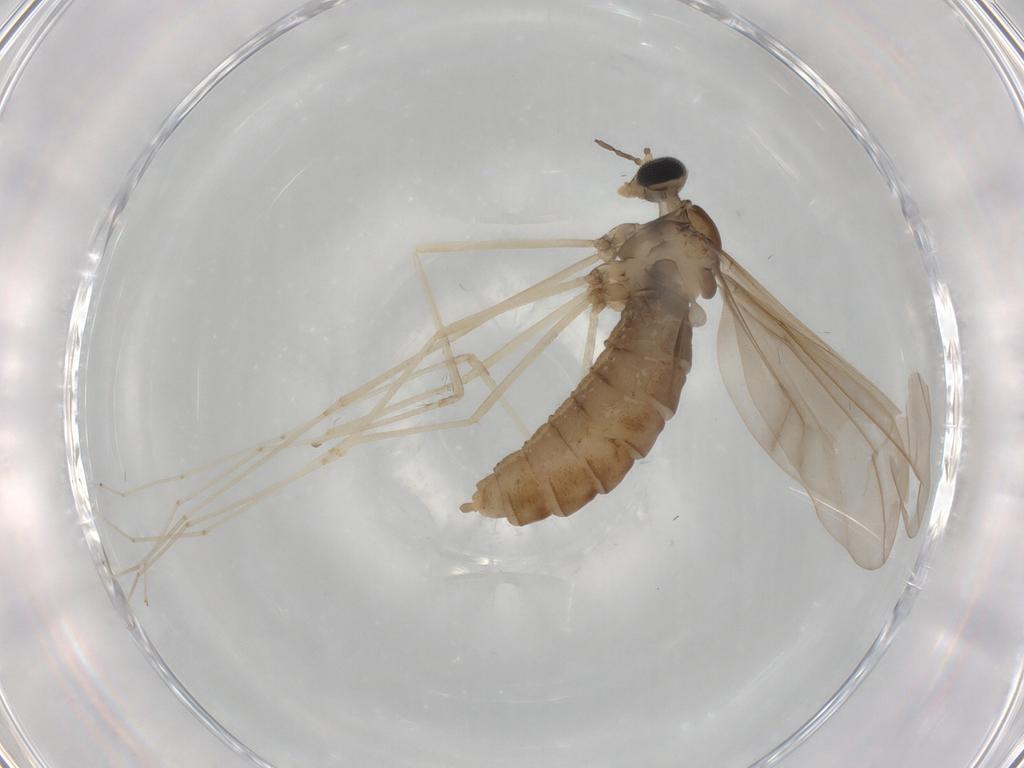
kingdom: Animalia
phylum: Arthropoda
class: Insecta
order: Diptera
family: Cecidomyiidae
